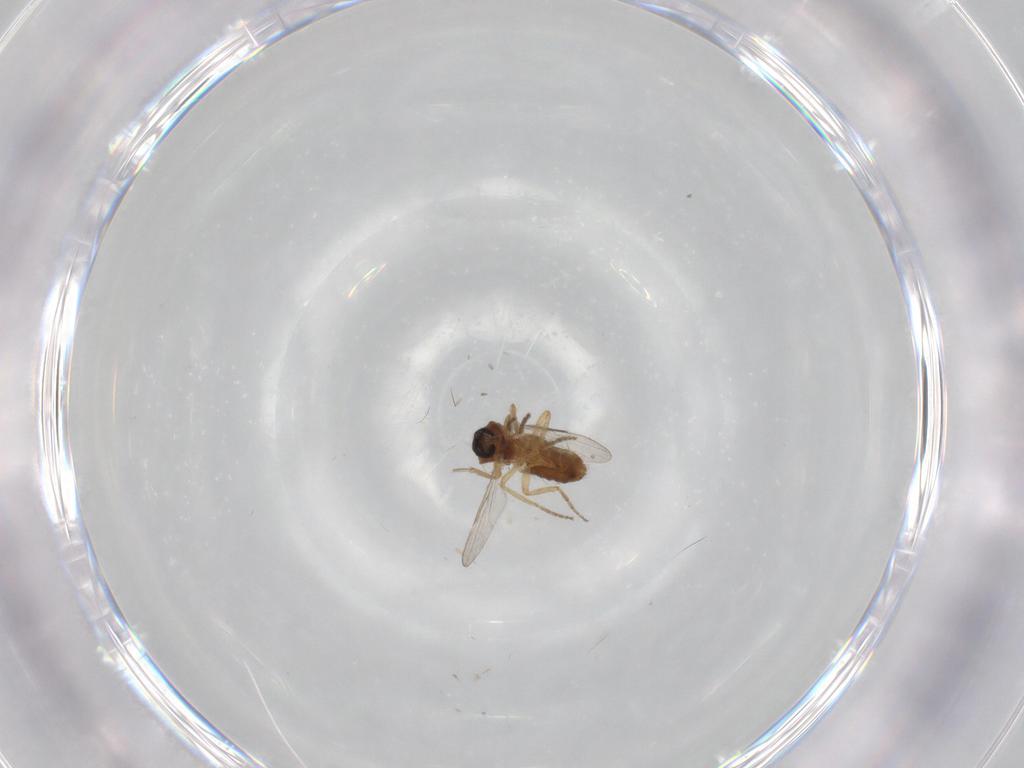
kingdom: Animalia
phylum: Arthropoda
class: Insecta
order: Diptera
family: Ceratopogonidae
